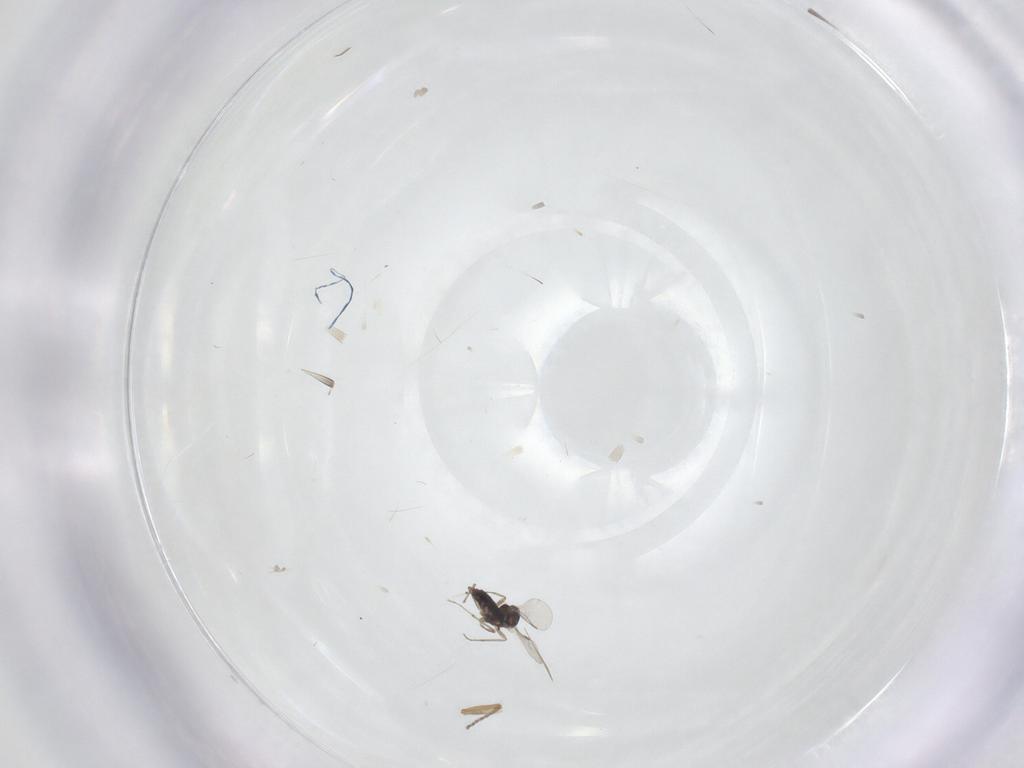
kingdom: Animalia
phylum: Arthropoda
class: Insecta
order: Diptera
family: Chironomidae
